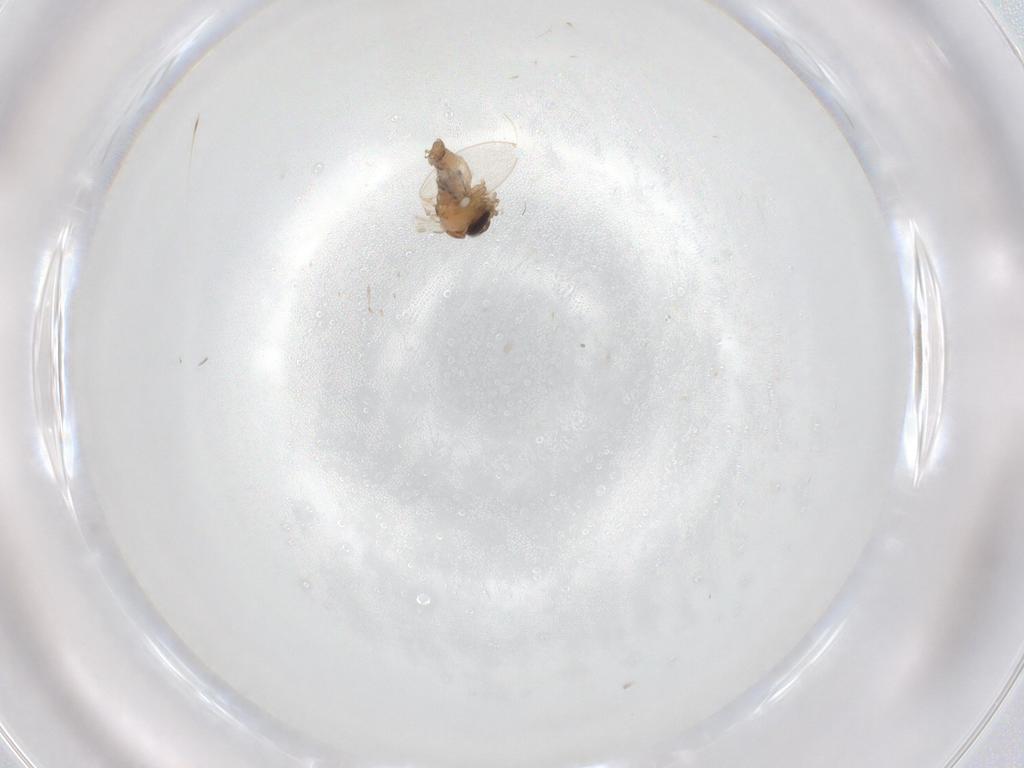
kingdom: Animalia
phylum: Arthropoda
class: Insecta
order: Diptera
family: Psychodidae
